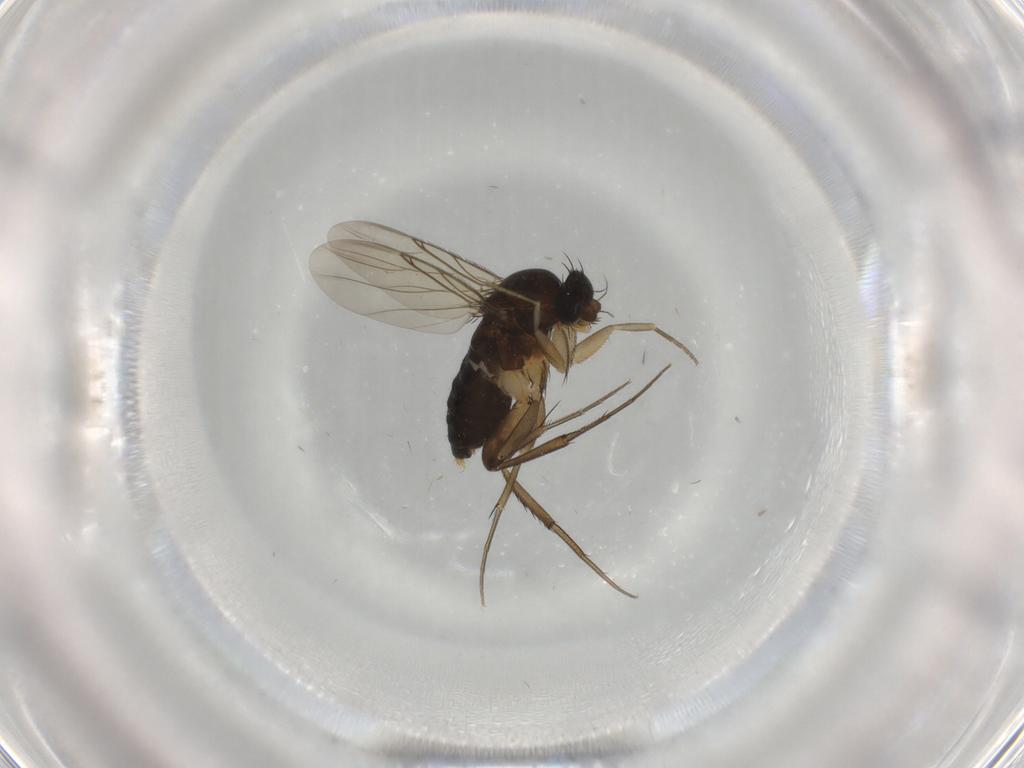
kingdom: Animalia
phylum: Arthropoda
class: Insecta
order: Diptera
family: Phoridae
